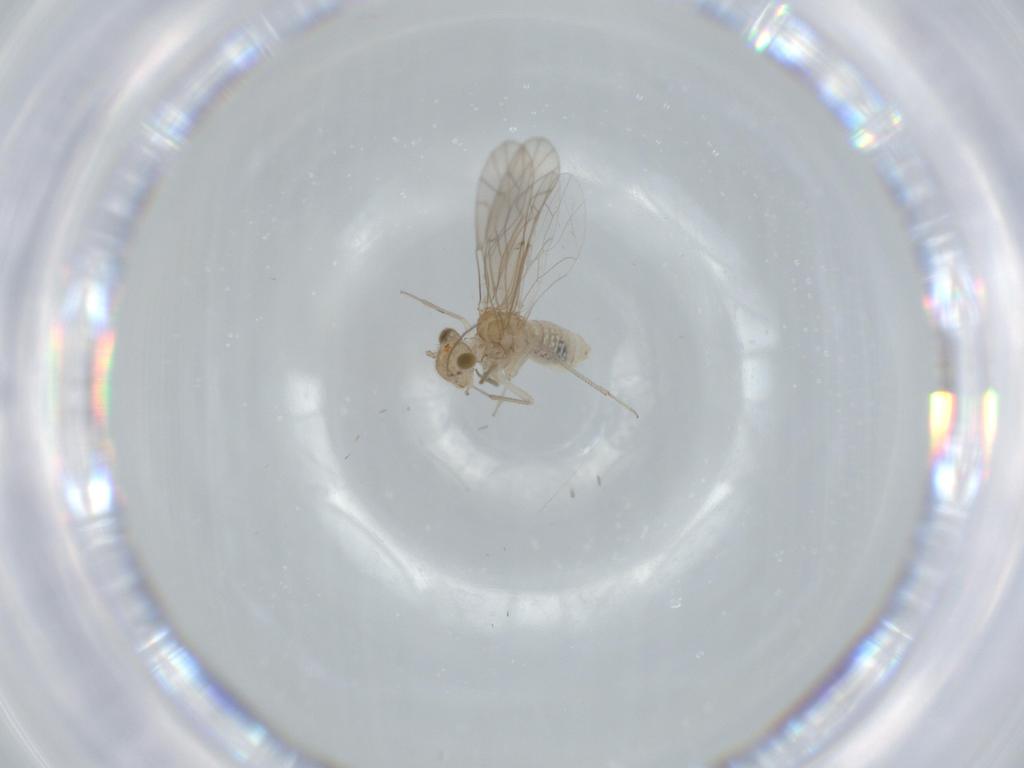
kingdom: Animalia
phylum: Arthropoda
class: Insecta
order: Psocodea
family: Lachesillidae
